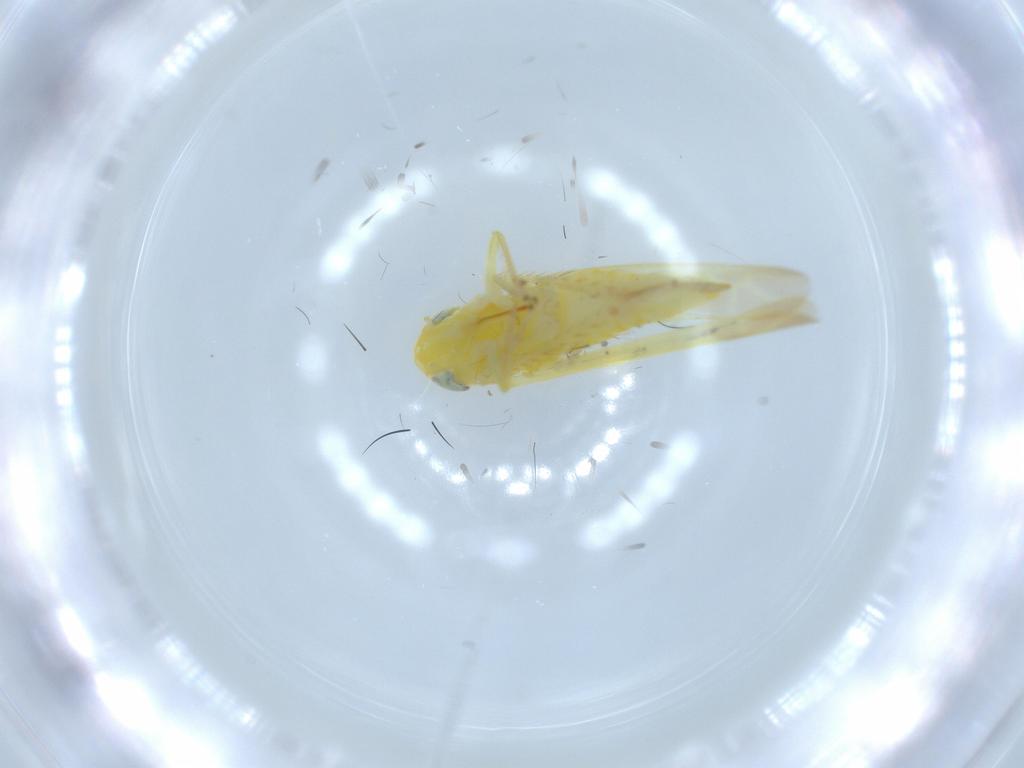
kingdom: Animalia
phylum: Arthropoda
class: Insecta
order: Hemiptera
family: Cicadellidae
